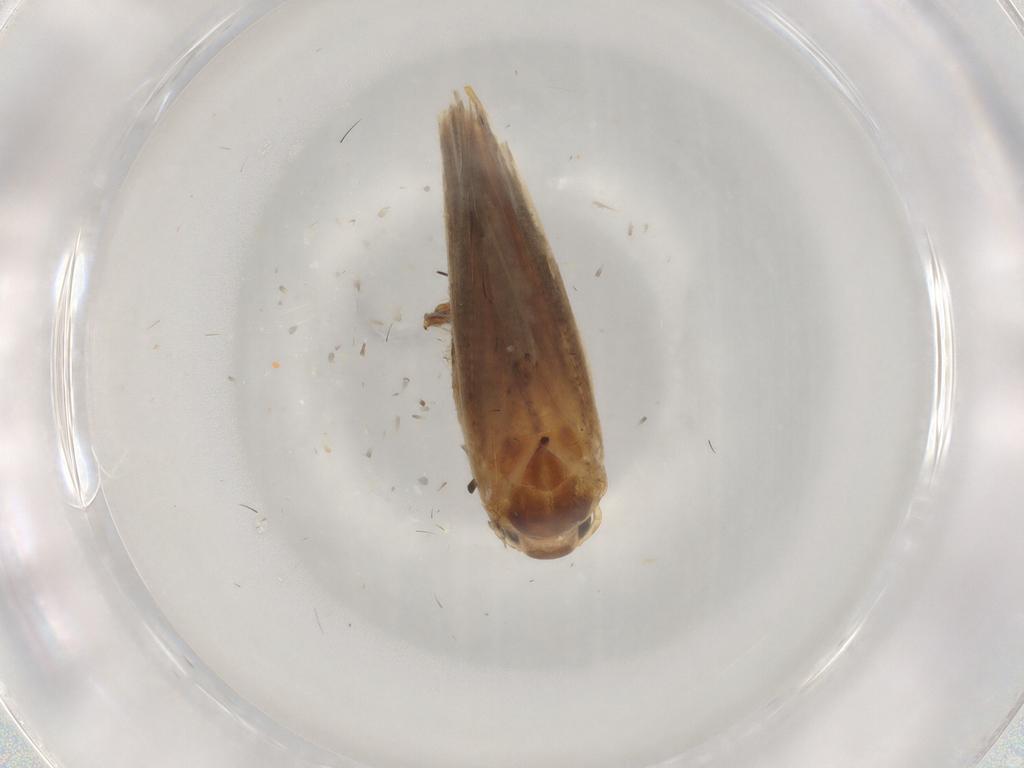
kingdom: Animalia
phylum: Arthropoda
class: Insecta
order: Lepidoptera
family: Gelechiidae
